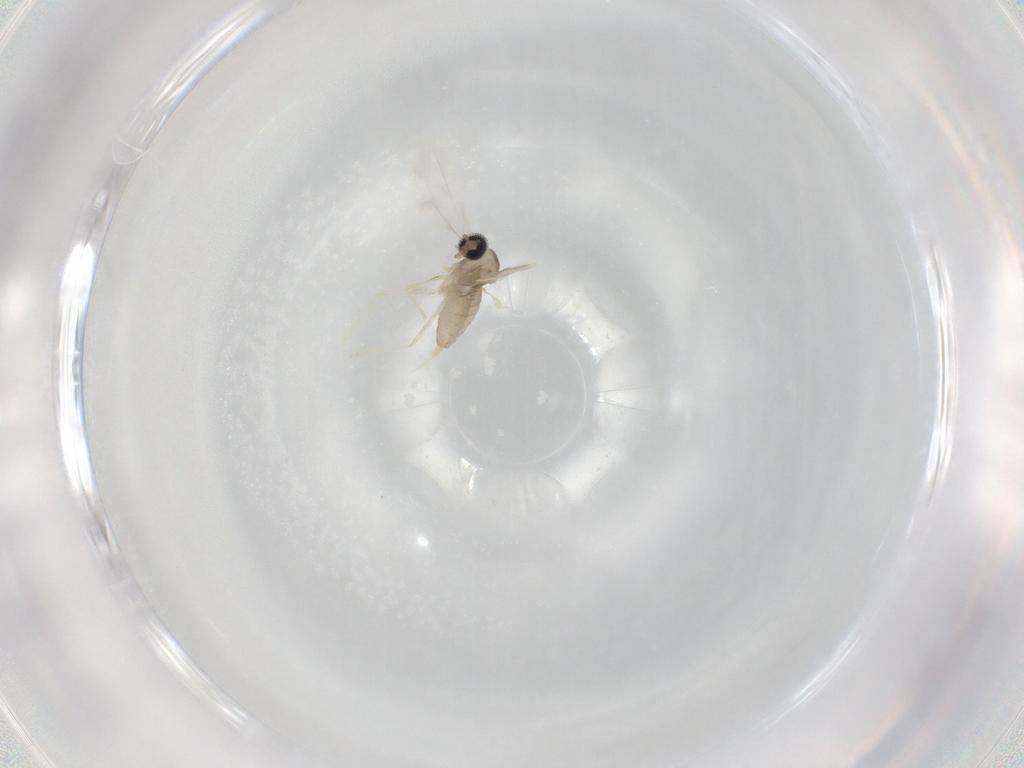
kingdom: Animalia
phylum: Arthropoda
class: Insecta
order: Diptera
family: Cecidomyiidae
